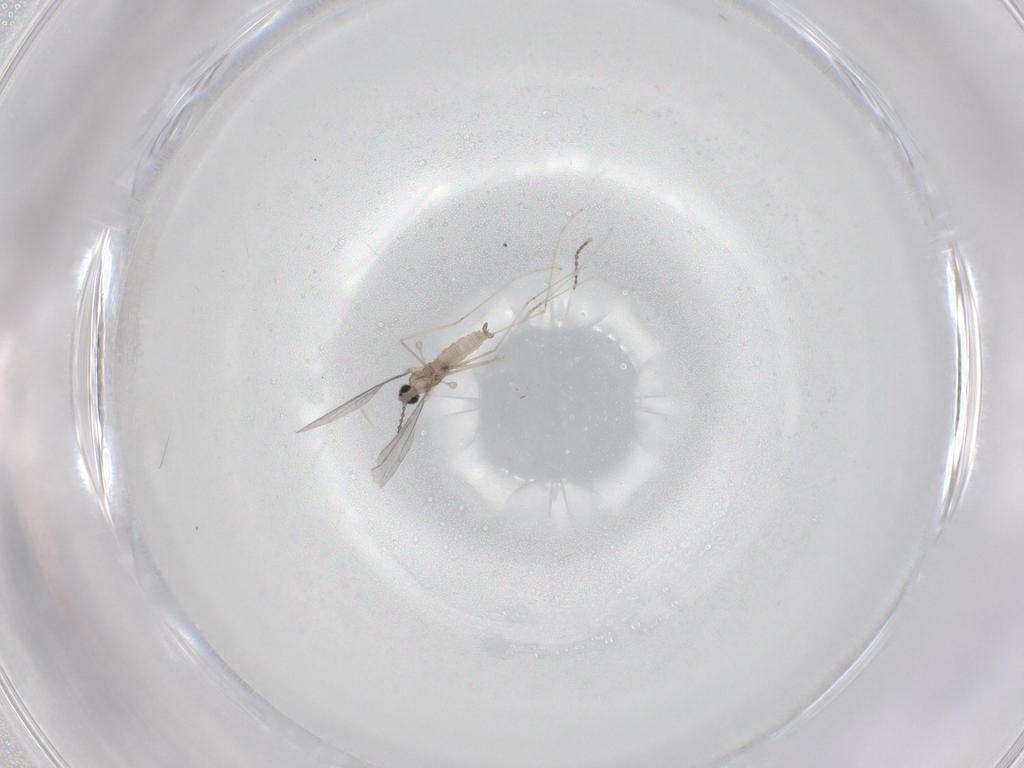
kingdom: Animalia
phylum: Arthropoda
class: Insecta
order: Diptera
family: Cecidomyiidae
